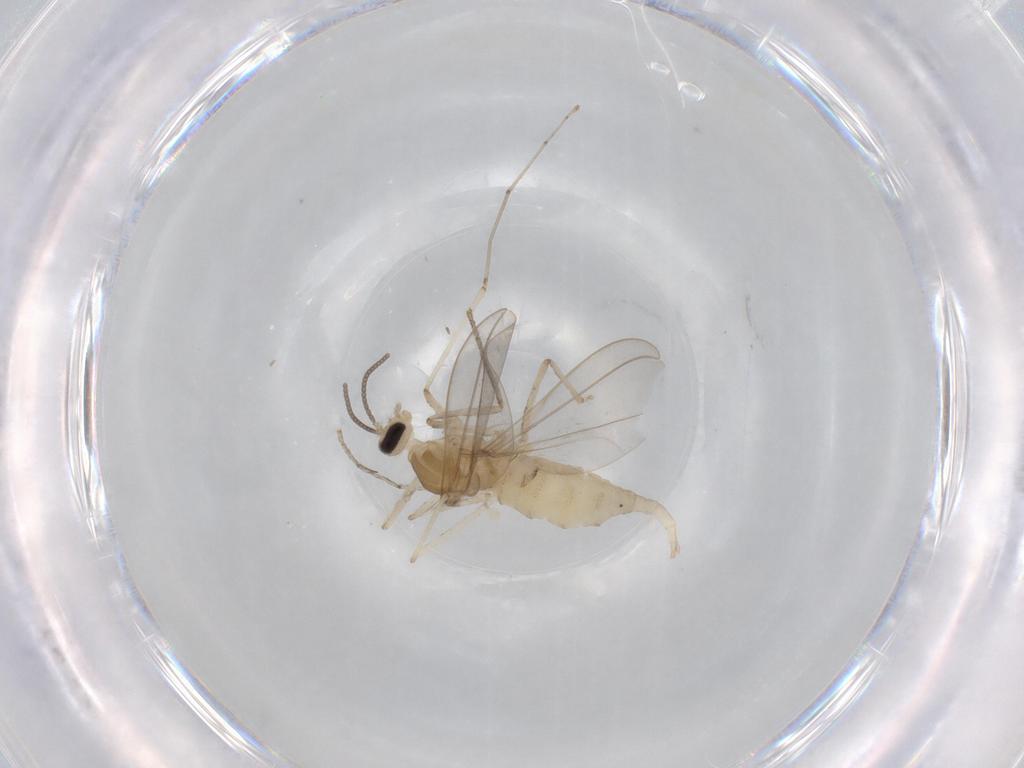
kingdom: Animalia
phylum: Arthropoda
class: Insecta
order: Diptera
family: Cecidomyiidae
